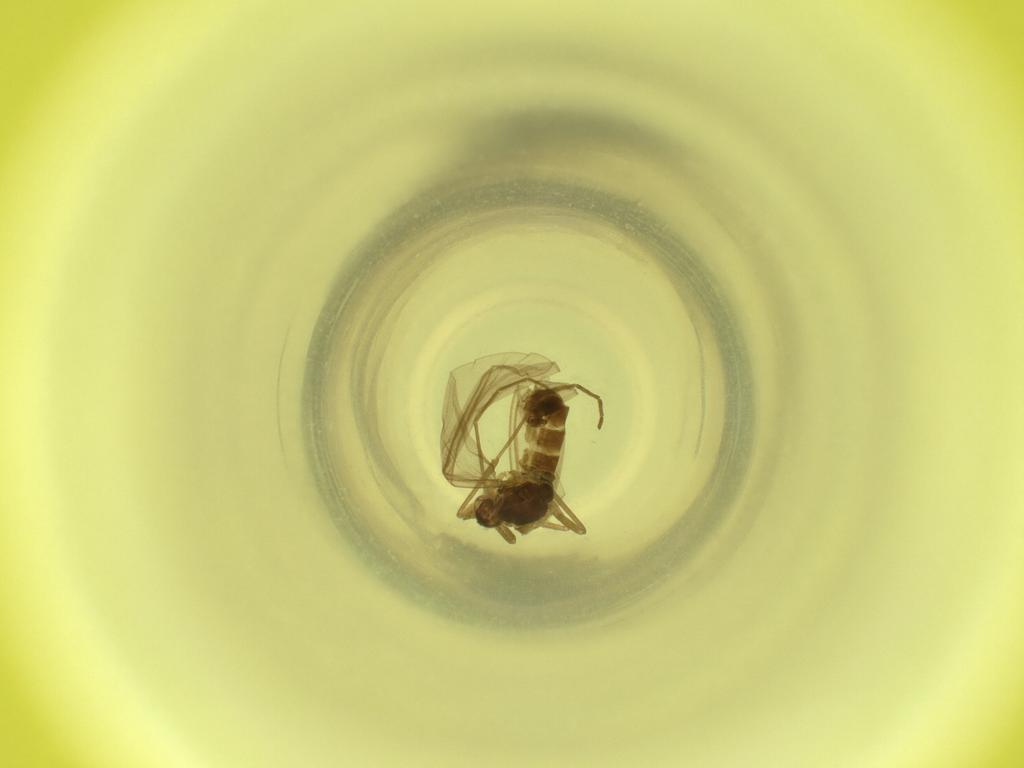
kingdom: Animalia
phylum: Arthropoda
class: Insecta
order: Diptera
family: Cecidomyiidae
